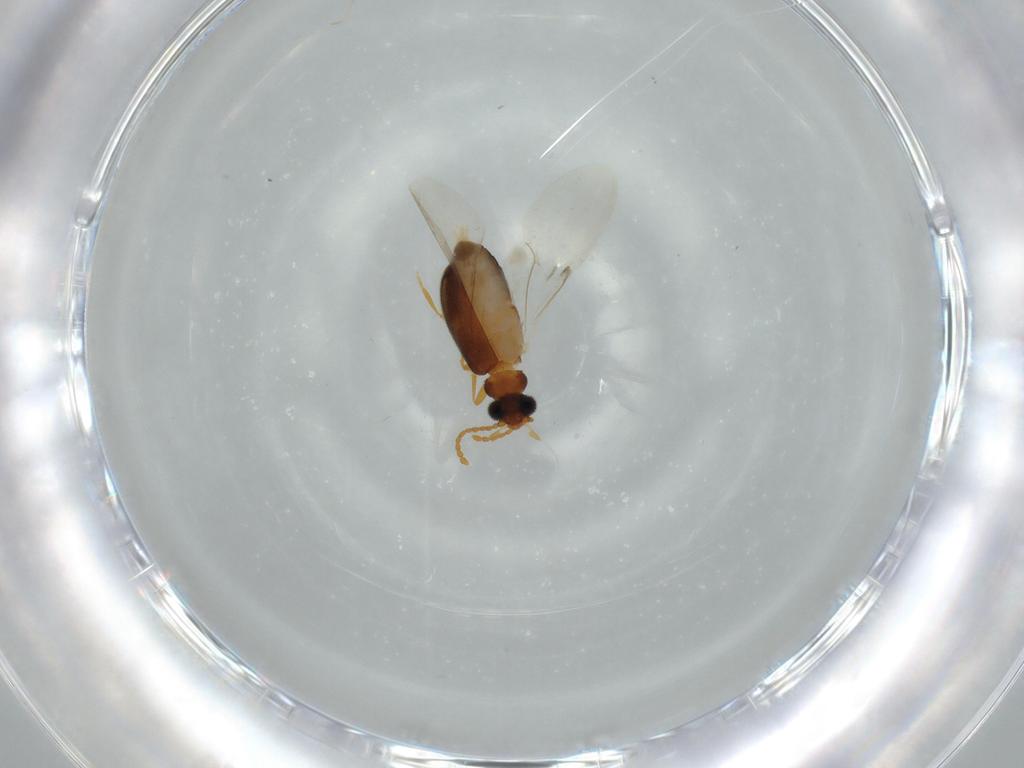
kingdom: Animalia
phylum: Arthropoda
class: Insecta
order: Coleoptera
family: Aderidae
